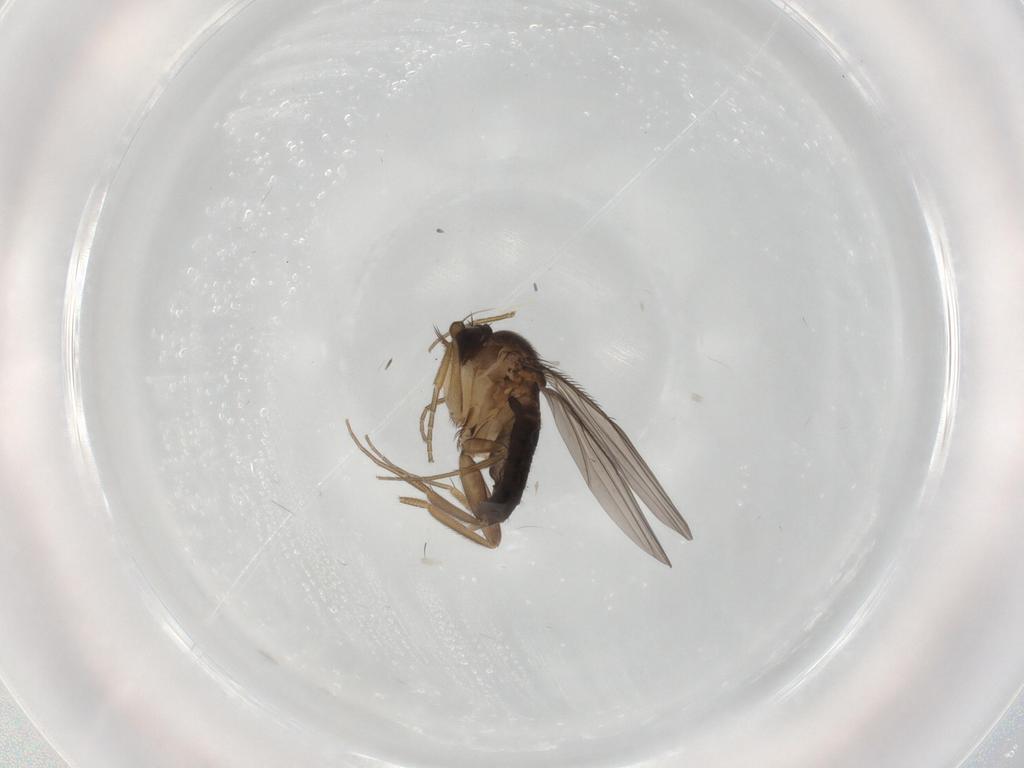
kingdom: Animalia
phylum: Arthropoda
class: Insecta
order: Diptera
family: Phoridae
